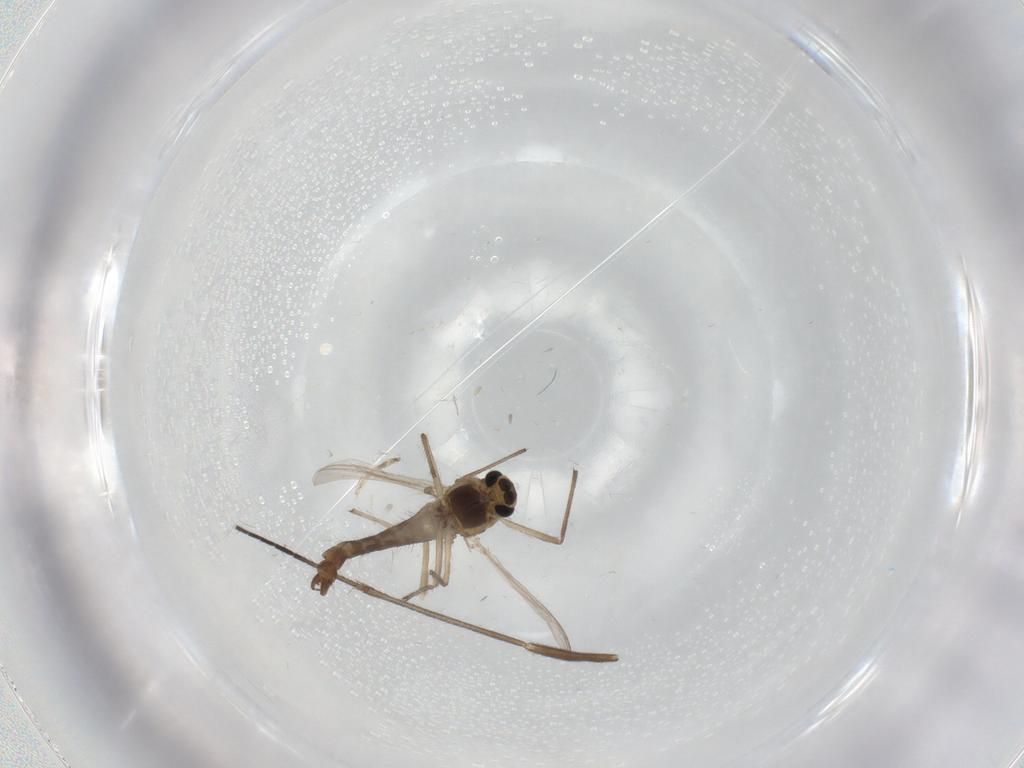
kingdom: Animalia
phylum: Arthropoda
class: Insecta
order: Diptera
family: Chironomidae
